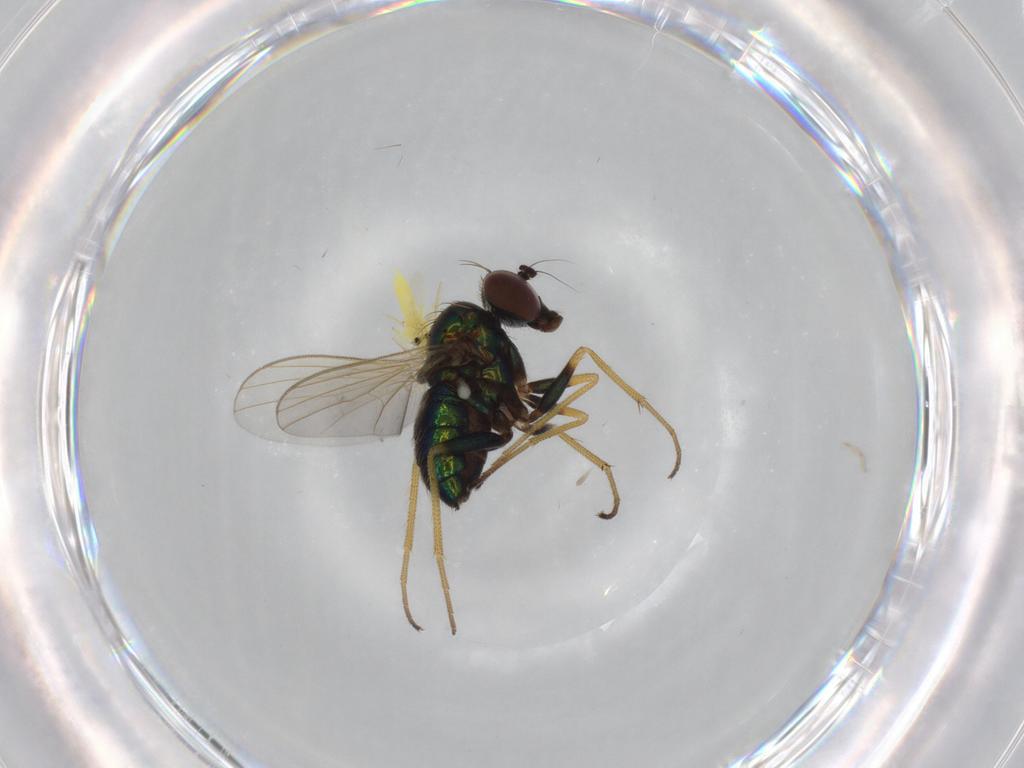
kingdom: Animalia
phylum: Arthropoda
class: Insecta
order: Diptera
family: Dolichopodidae
